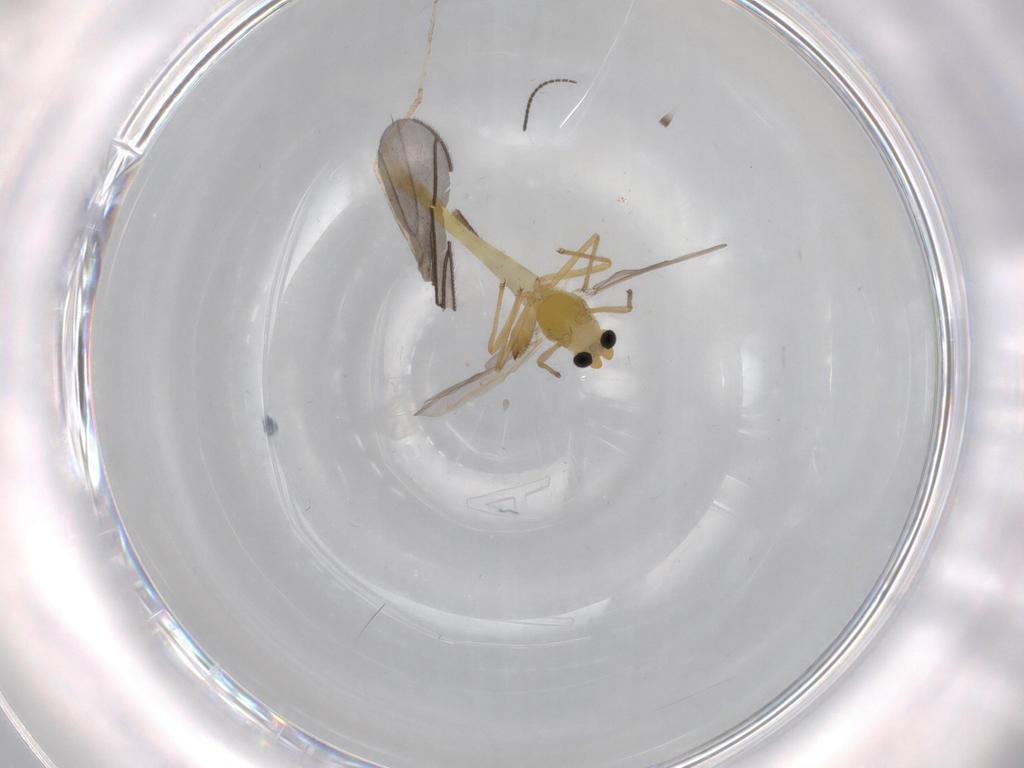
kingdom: Animalia
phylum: Arthropoda
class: Insecta
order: Diptera
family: Mycetophilidae
